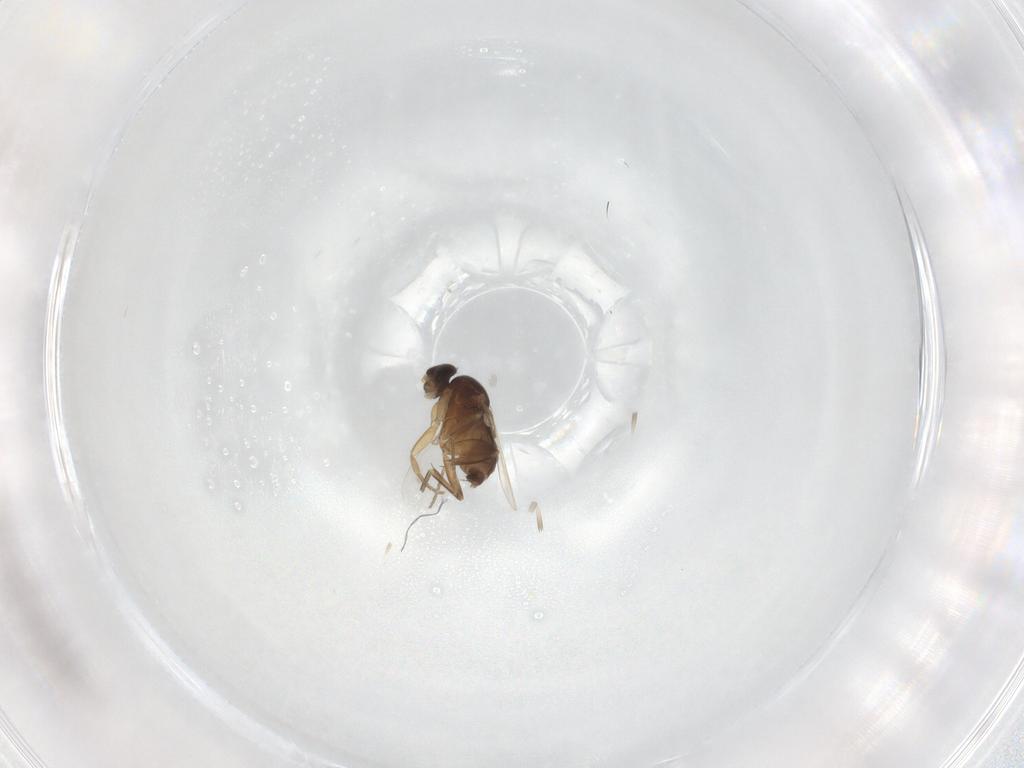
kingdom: Animalia
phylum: Arthropoda
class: Insecta
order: Diptera
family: Phoridae
